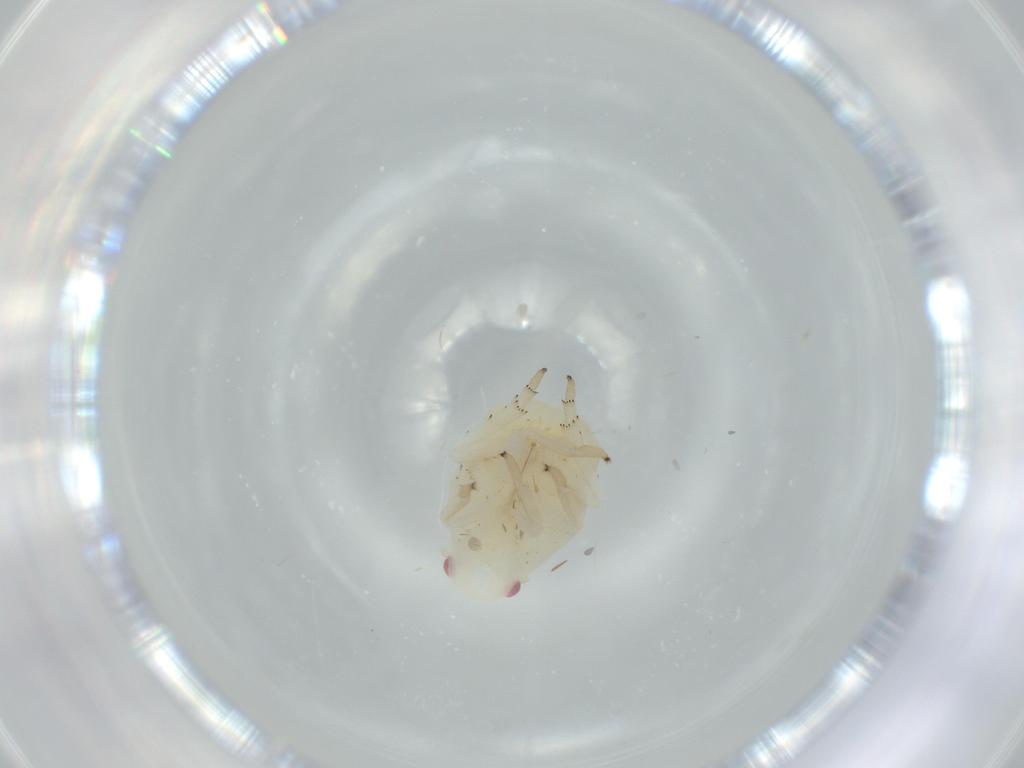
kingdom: Animalia
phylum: Arthropoda
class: Insecta
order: Hemiptera
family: Flatidae
